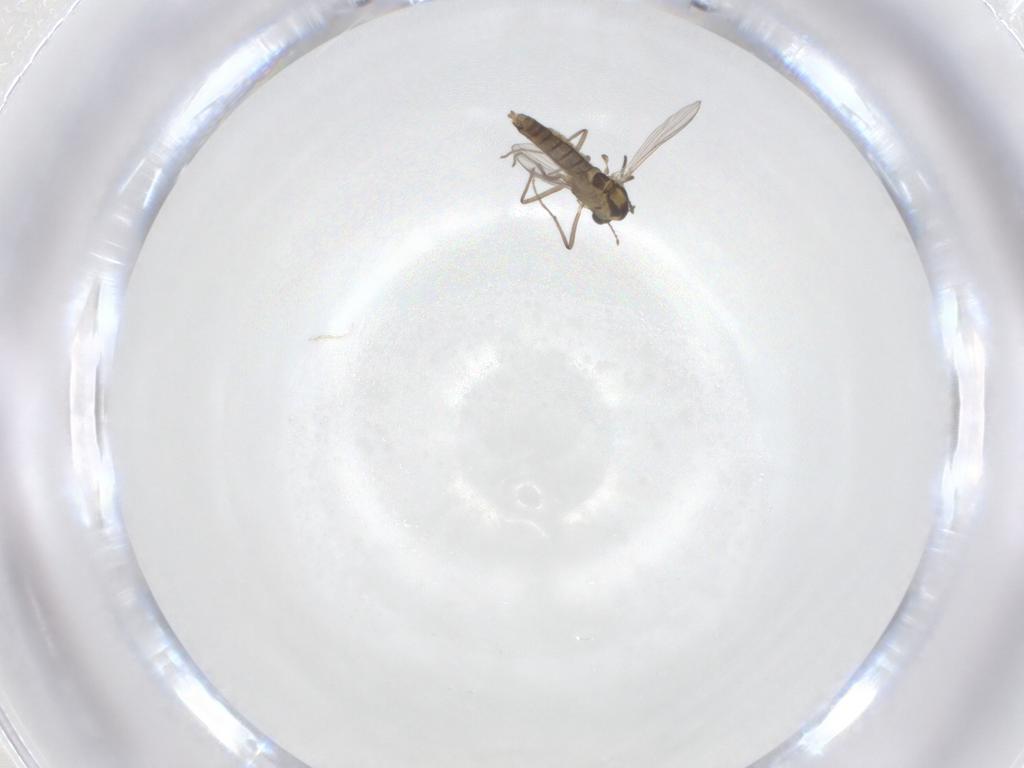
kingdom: Animalia
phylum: Arthropoda
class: Insecta
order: Diptera
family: Chironomidae
